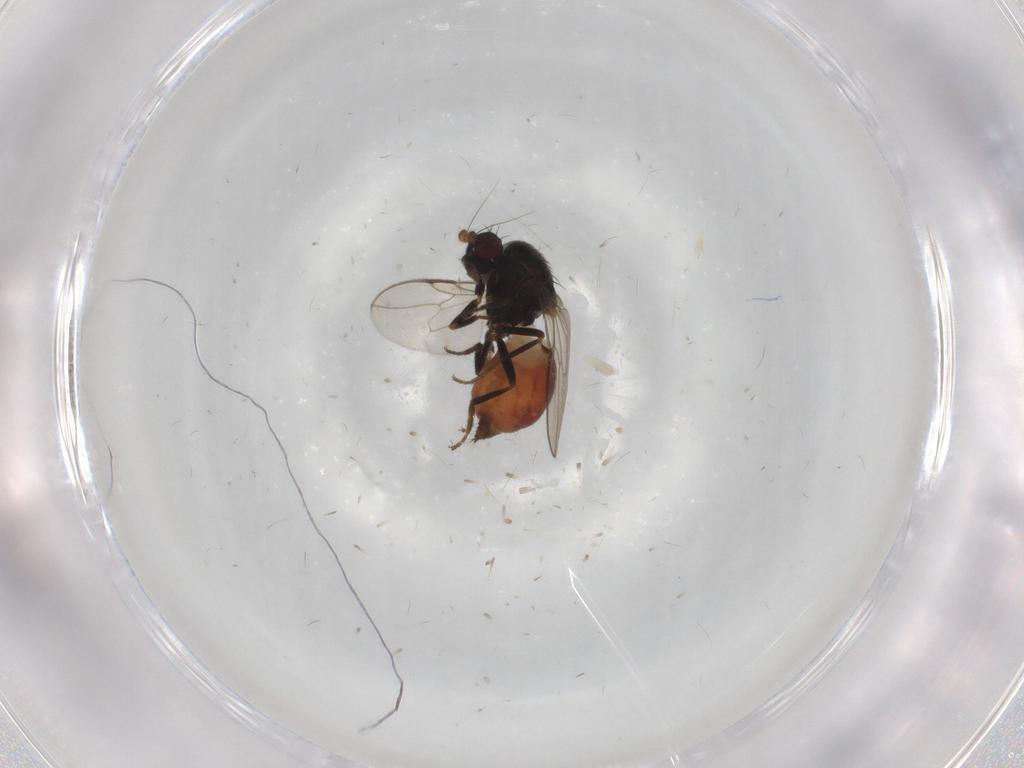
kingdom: Animalia
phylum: Arthropoda
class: Insecta
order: Diptera
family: Sphaeroceridae
